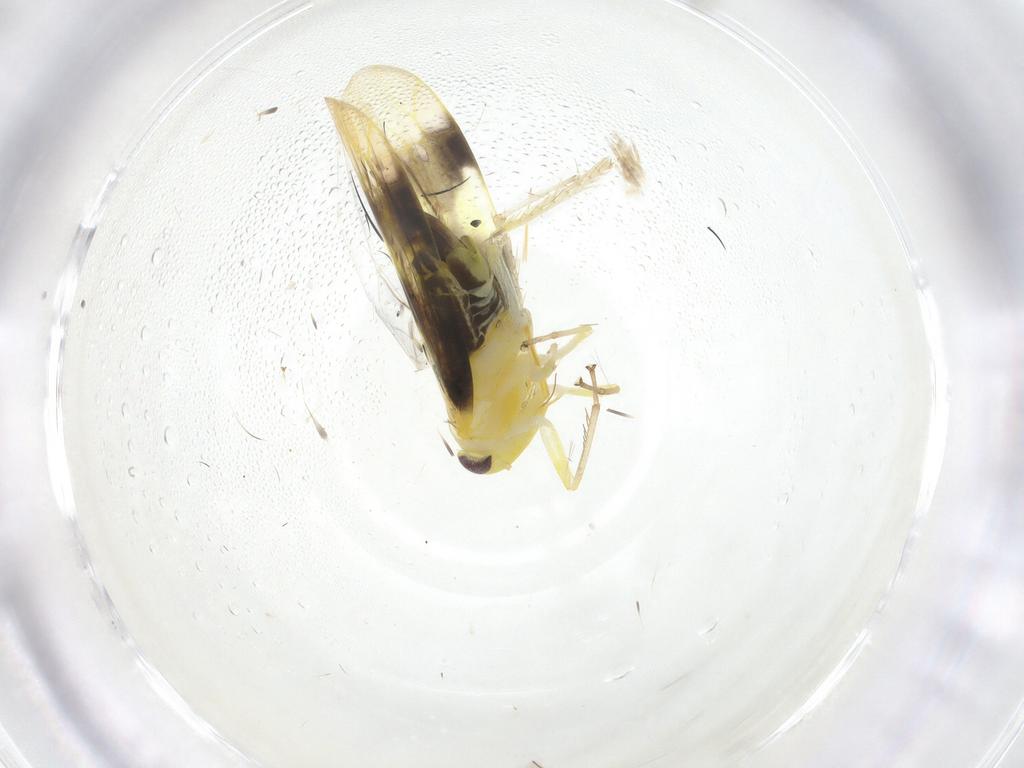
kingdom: Animalia
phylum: Arthropoda
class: Insecta
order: Hemiptera
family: Cicadellidae
